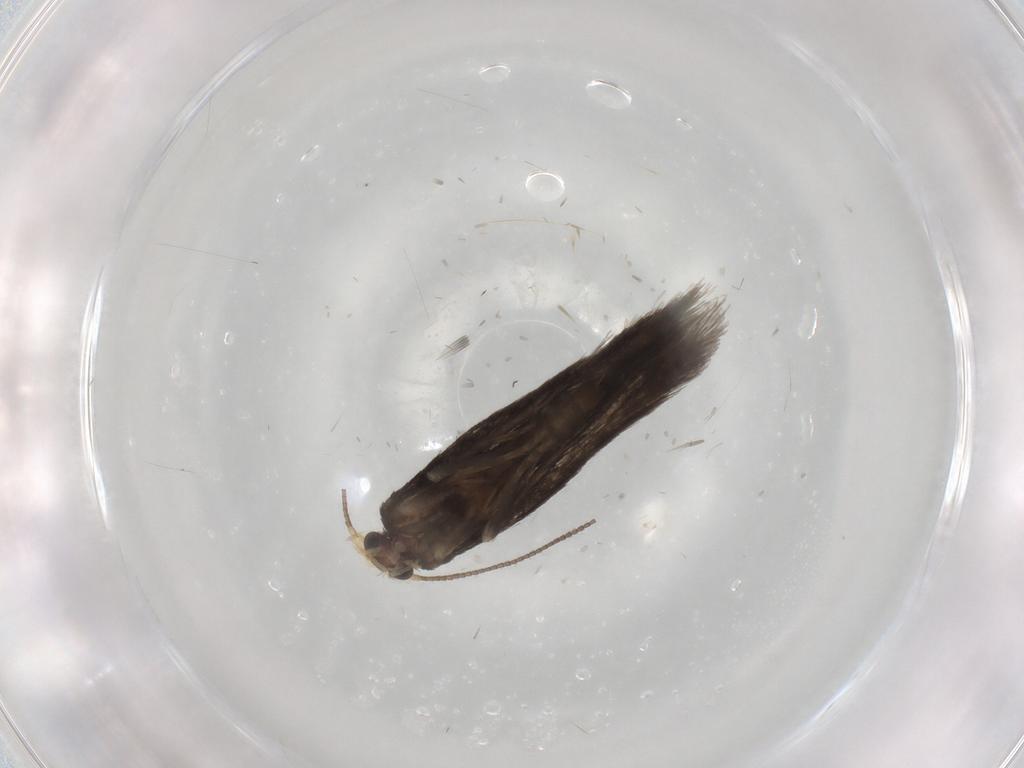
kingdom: Animalia
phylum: Arthropoda
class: Insecta
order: Lepidoptera
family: Nepticulidae
